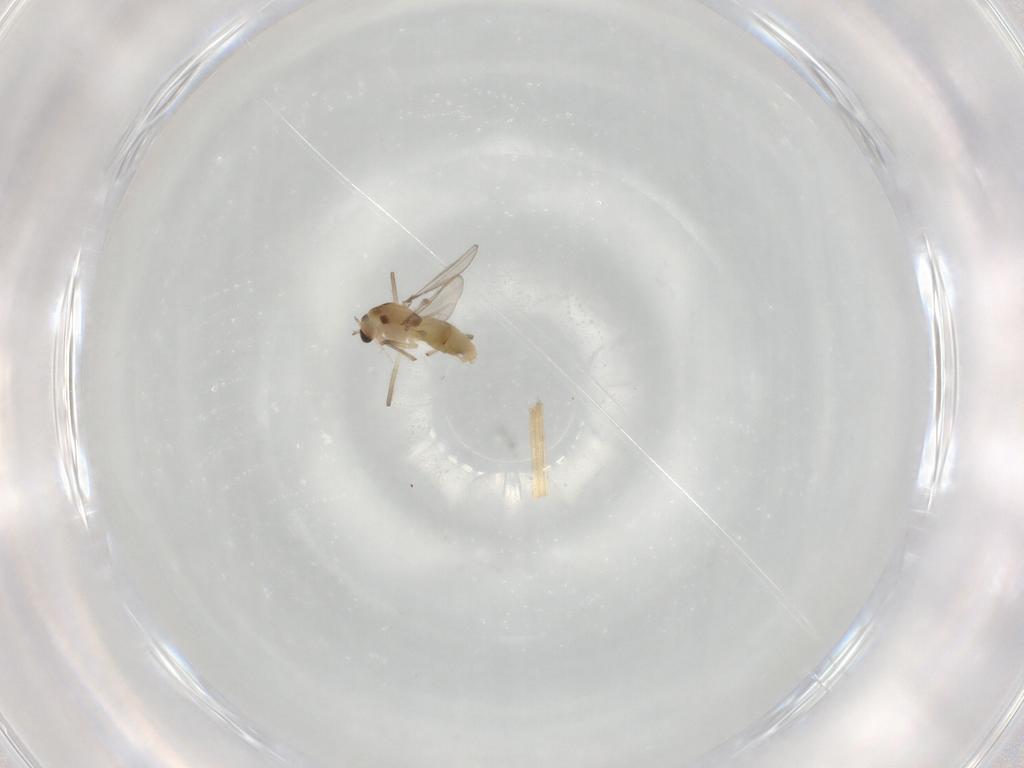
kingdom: Animalia
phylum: Arthropoda
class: Insecta
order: Diptera
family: Chironomidae
